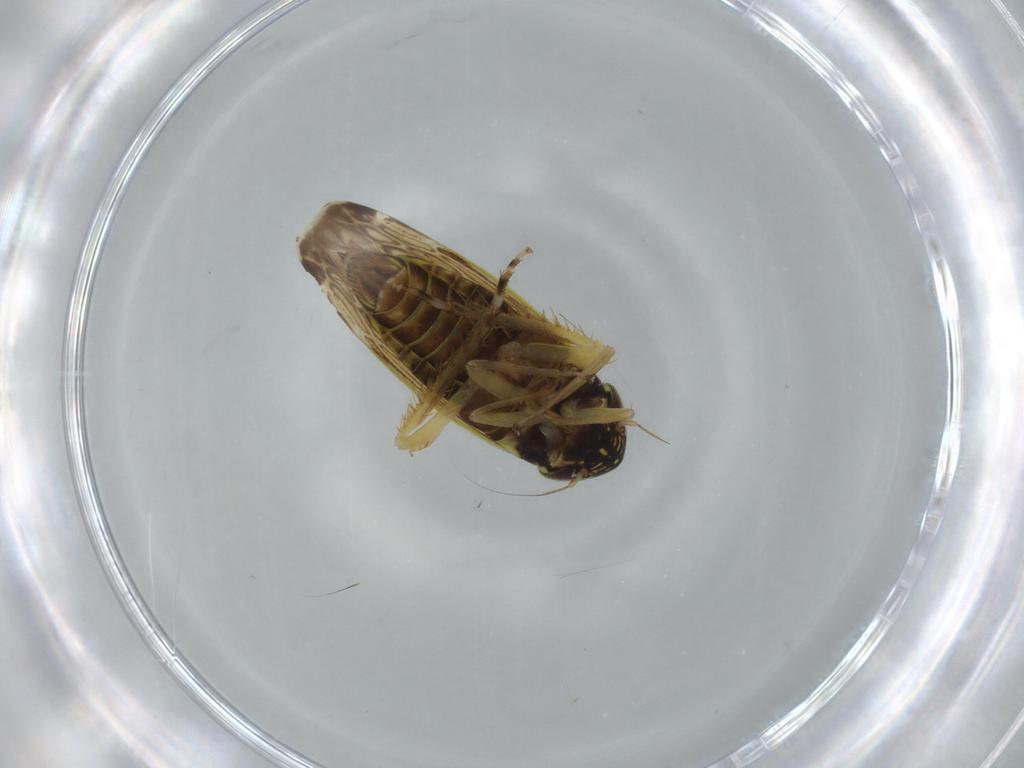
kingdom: Animalia
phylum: Arthropoda
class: Insecta
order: Hemiptera
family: Cicadellidae
